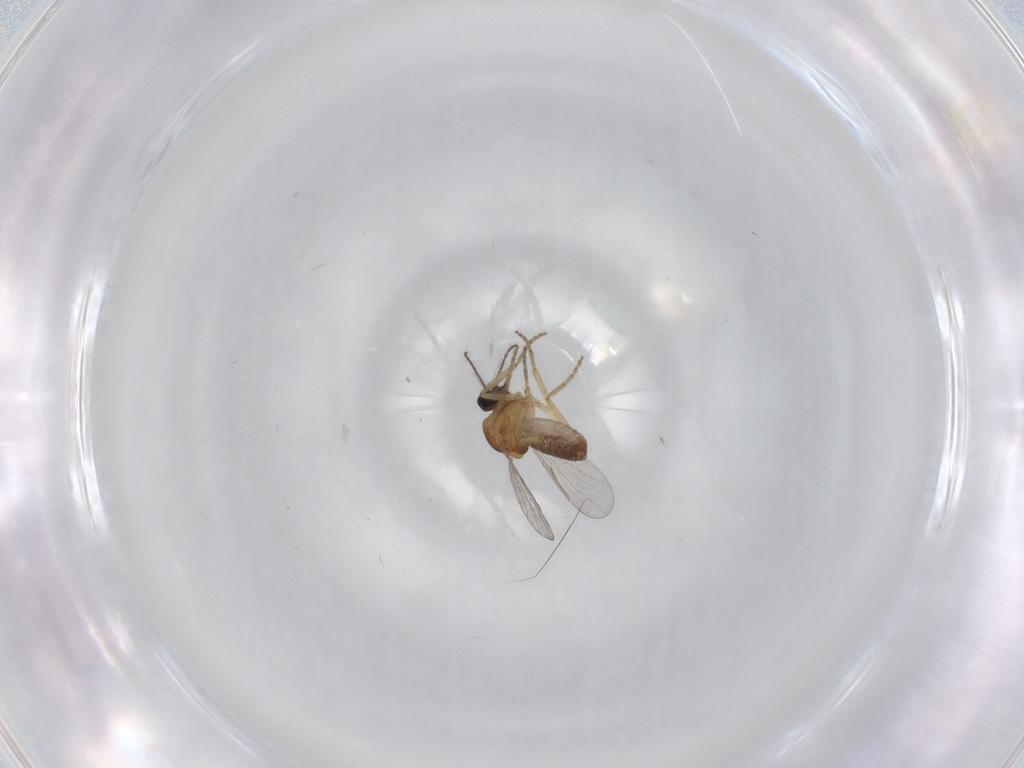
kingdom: Animalia
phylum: Arthropoda
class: Insecta
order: Diptera
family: Ceratopogonidae
